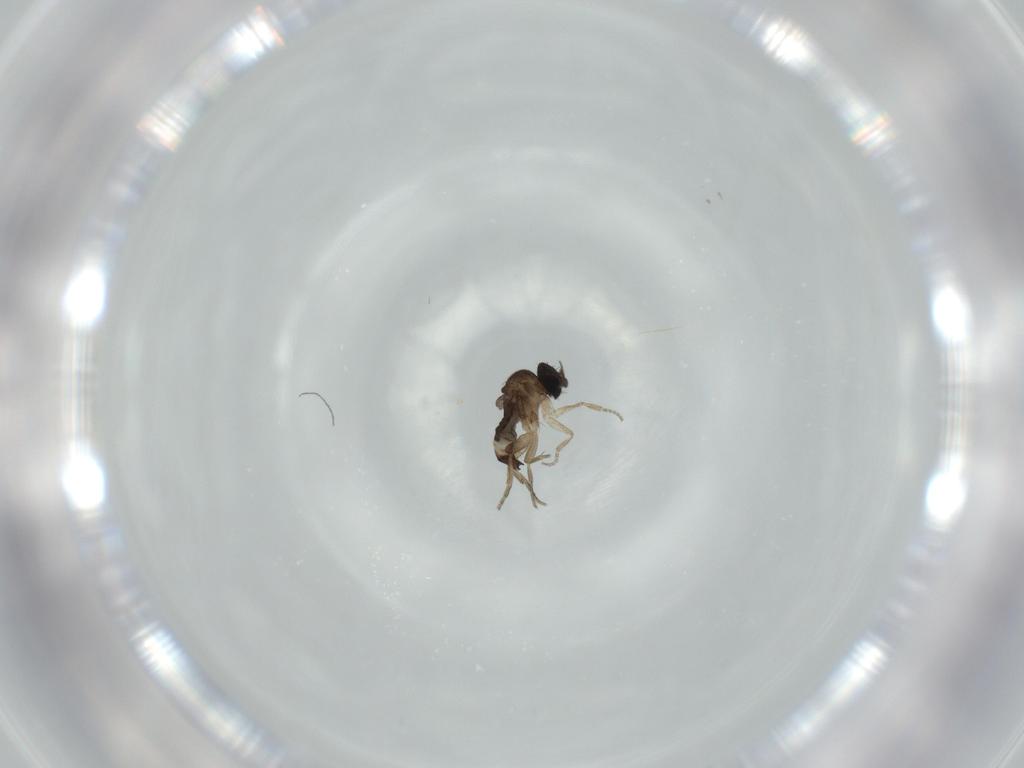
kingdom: Animalia
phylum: Arthropoda
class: Insecta
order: Diptera
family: Phoridae
